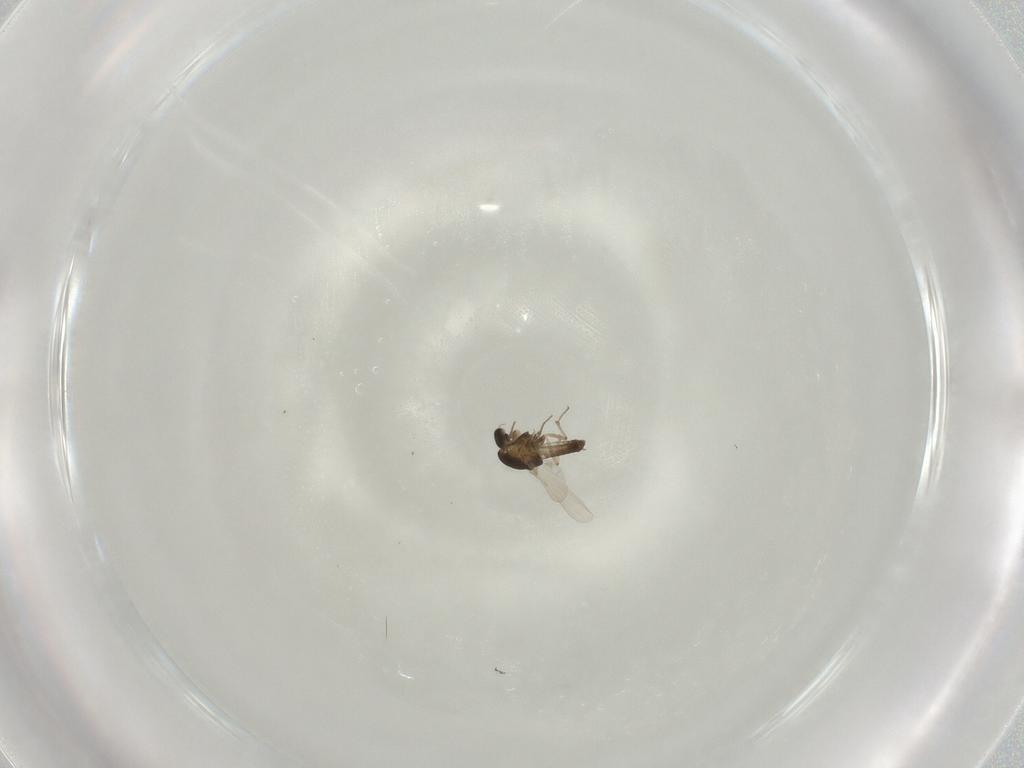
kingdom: Animalia
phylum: Arthropoda
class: Insecta
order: Diptera
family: Chironomidae
